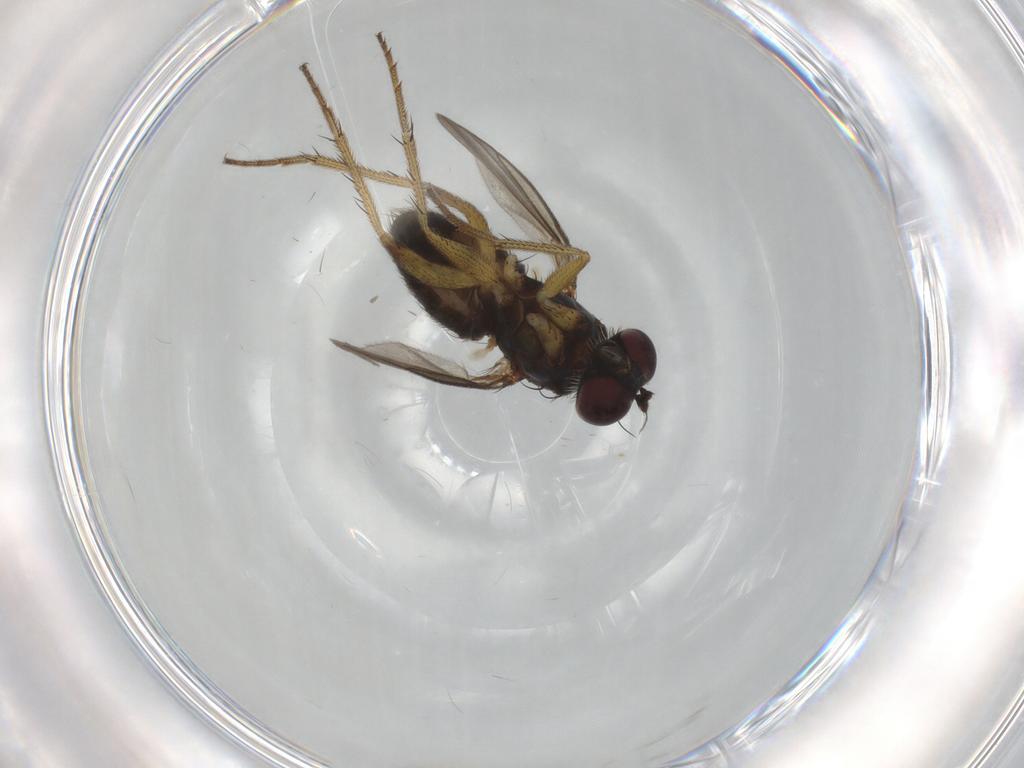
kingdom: Animalia
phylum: Arthropoda
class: Insecta
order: Diptera
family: Dolichopodidae
